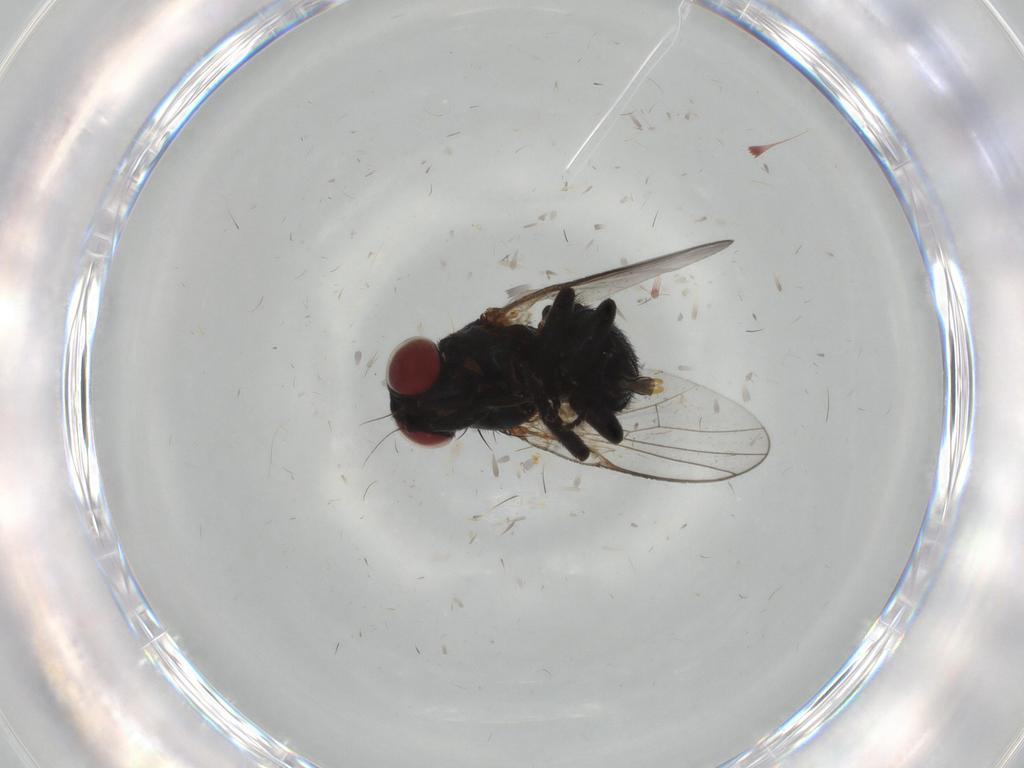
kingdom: Animalia
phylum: Arthropoda
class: Insecta
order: Diptera
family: Agromyzidae
